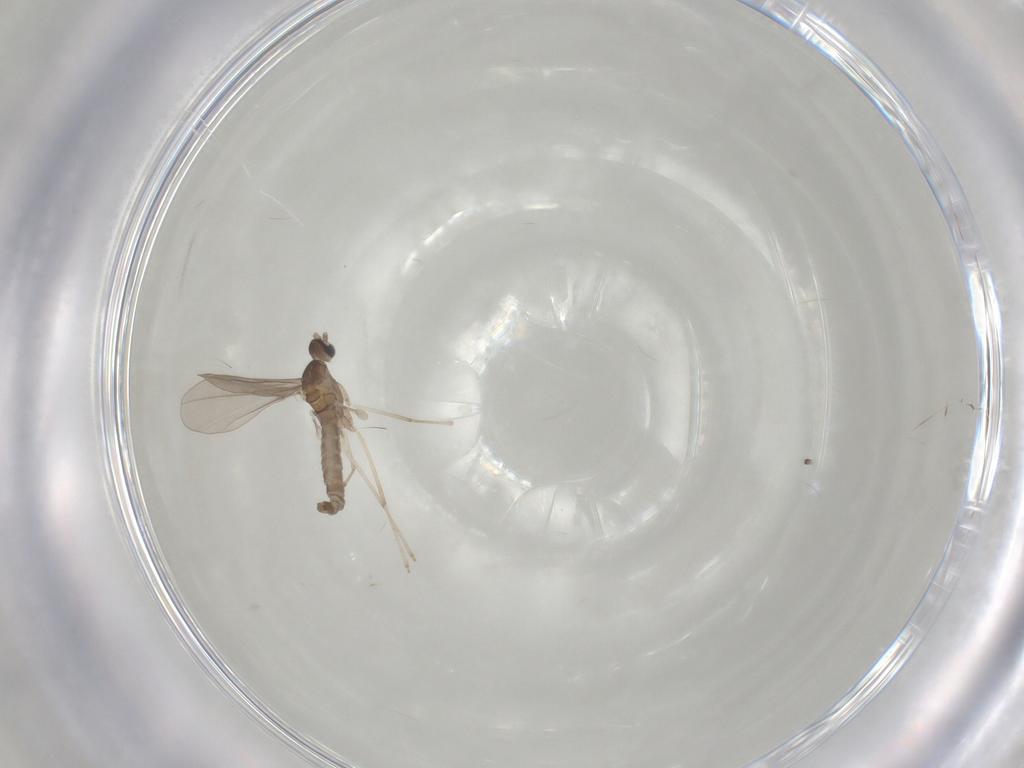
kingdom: Animalia
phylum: Arthropoda
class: Insecta
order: Diptera
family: Cecidomyiidae
